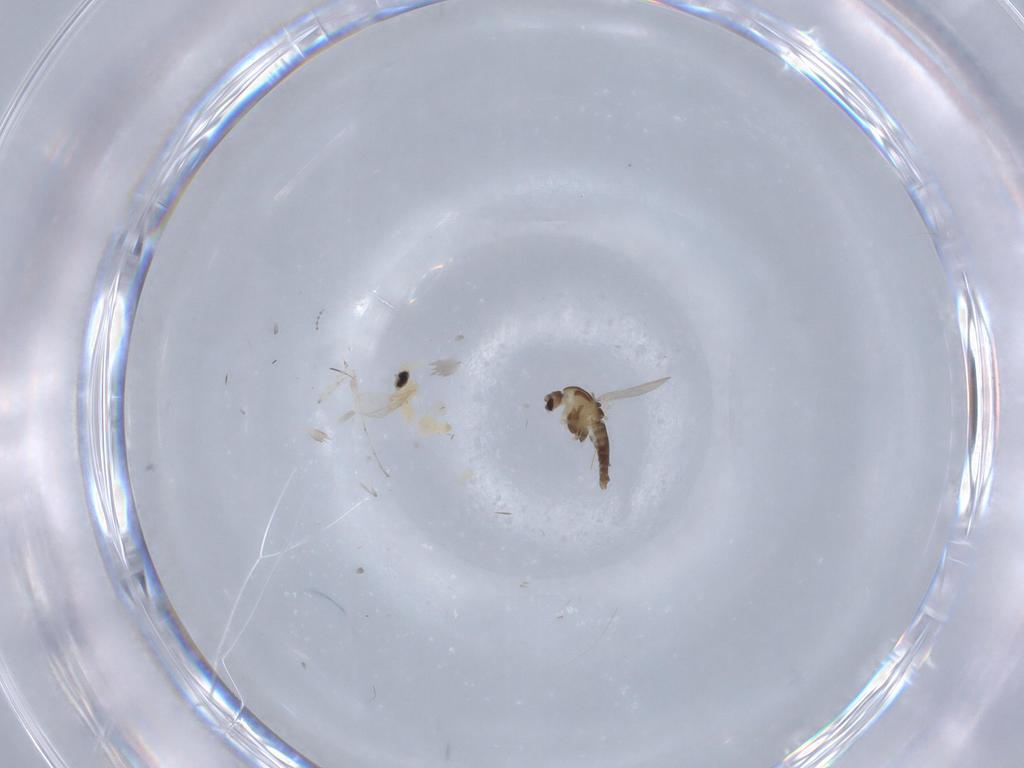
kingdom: Animalia
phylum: Arthropoda
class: Insecta
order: Diptera
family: Chironomidae
